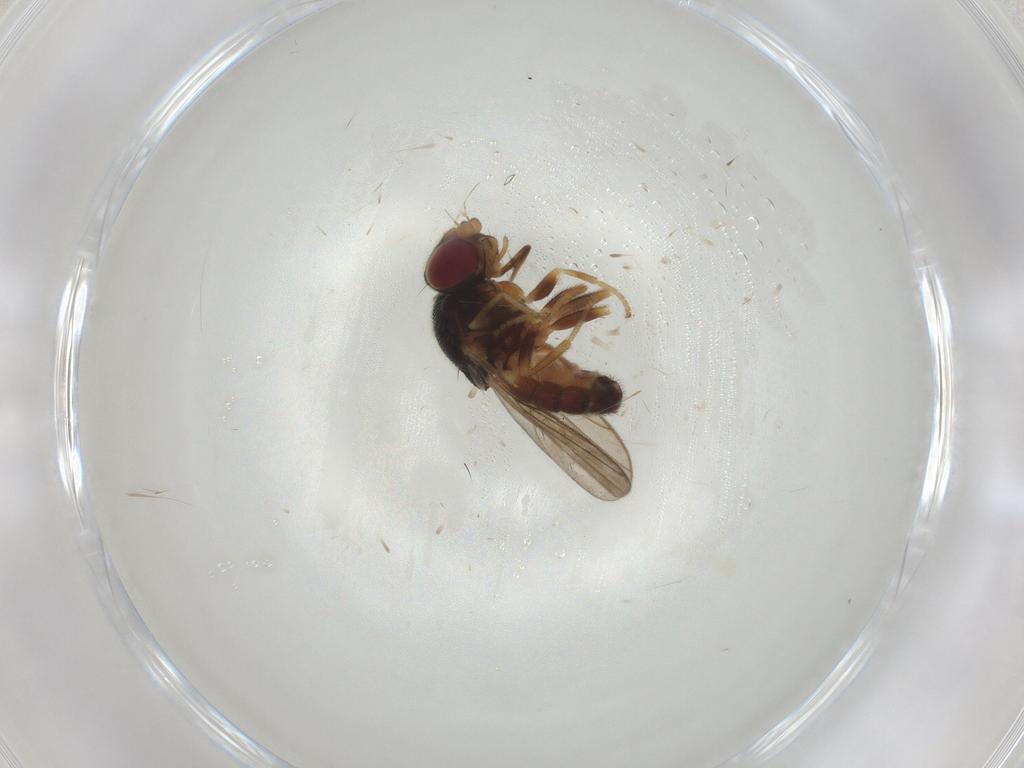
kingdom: Animalia
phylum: Arthropoda
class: Insecta
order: Diptera
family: Chloropidae
